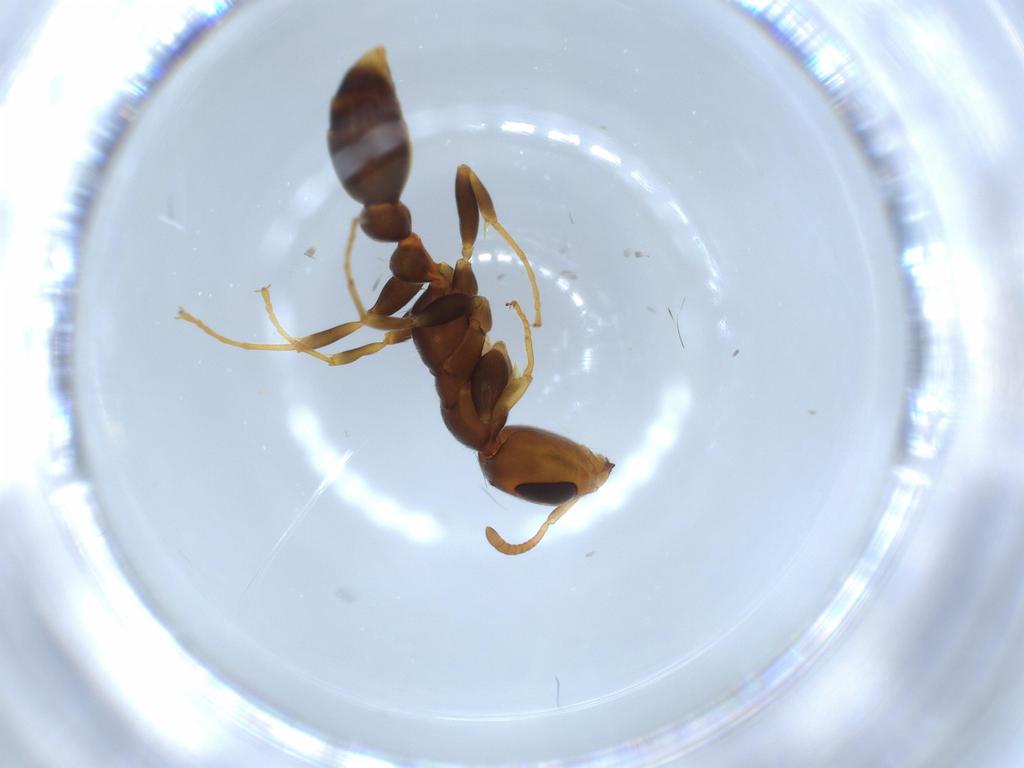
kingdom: Animalia
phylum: Arthropoda
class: Insecta
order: Hymenoptera
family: Formicidae
